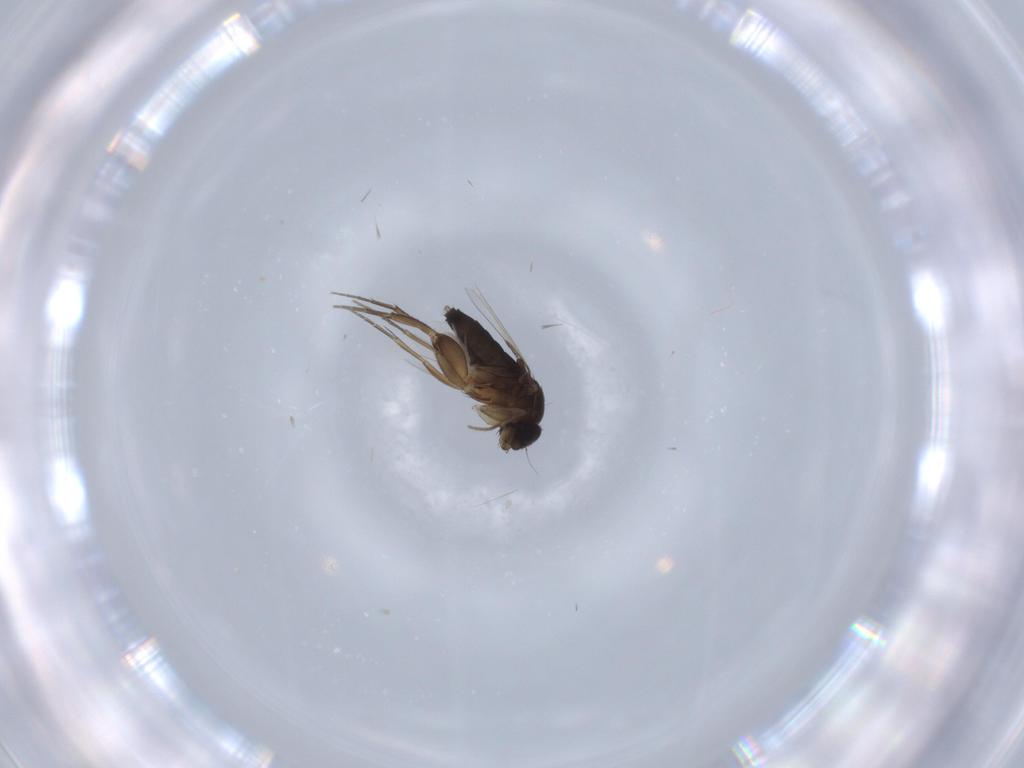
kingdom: Animalia
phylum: Arthropoda
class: Insecta
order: Diptera
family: Phoridae
